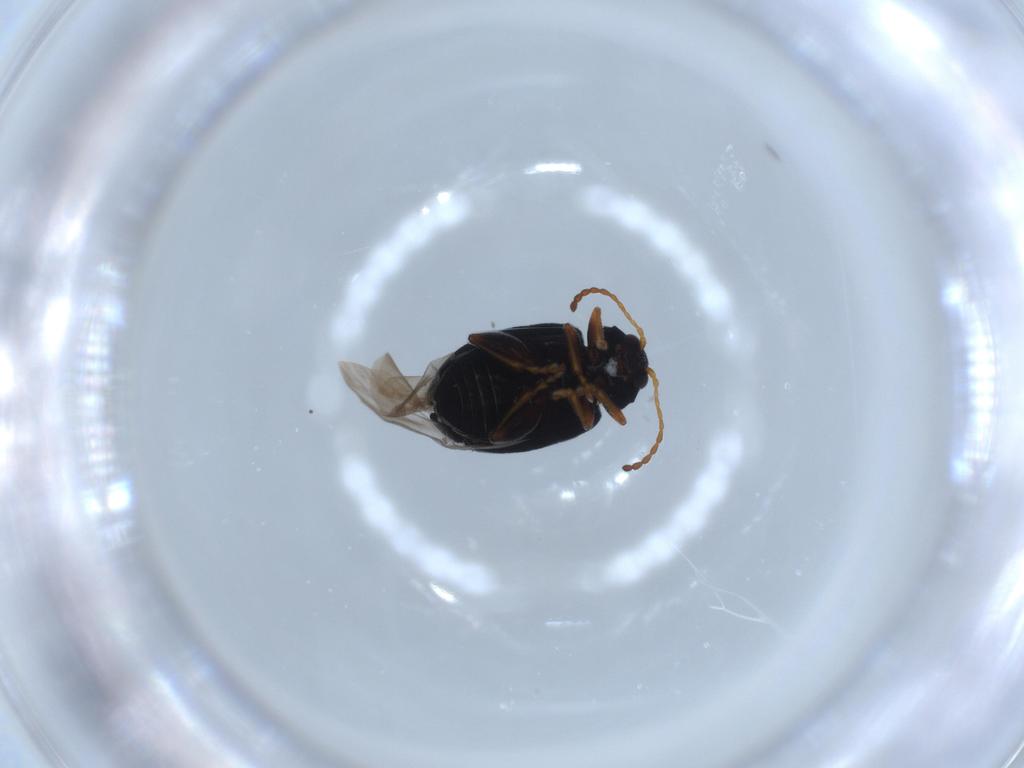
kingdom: Animalia
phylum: Arthropoda
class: Insecta
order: Coleoptera
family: Chrysomelidae
